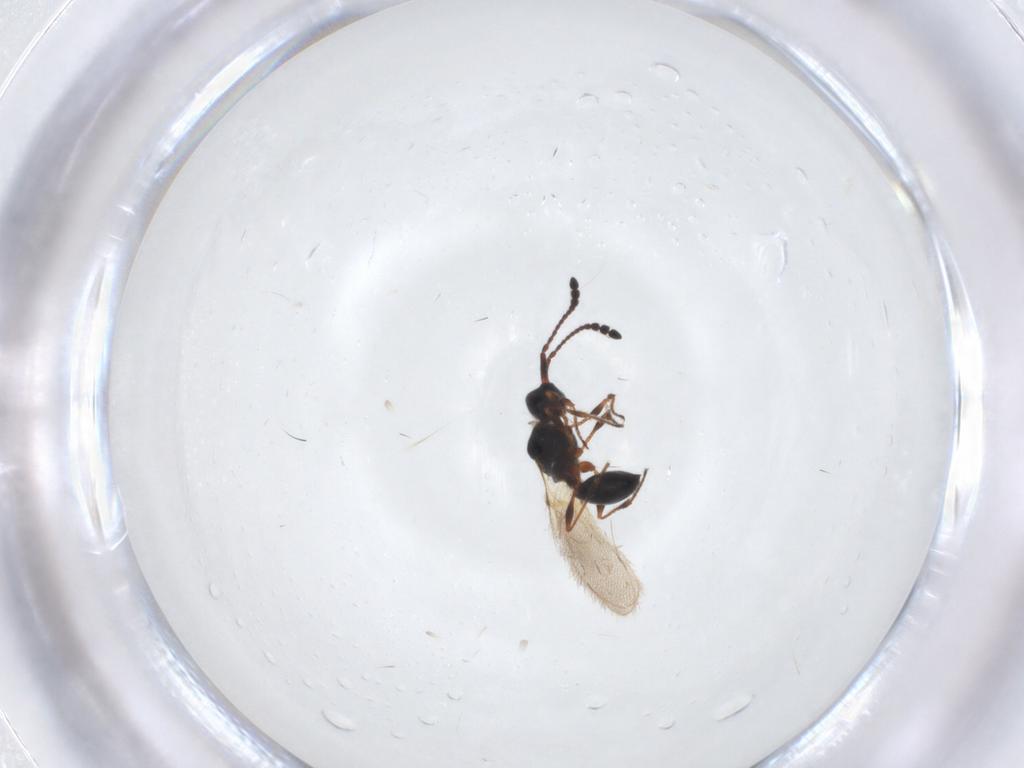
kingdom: Animalia
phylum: Arthropoda
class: Insecta
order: Hymenoptera
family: Diapriidae
